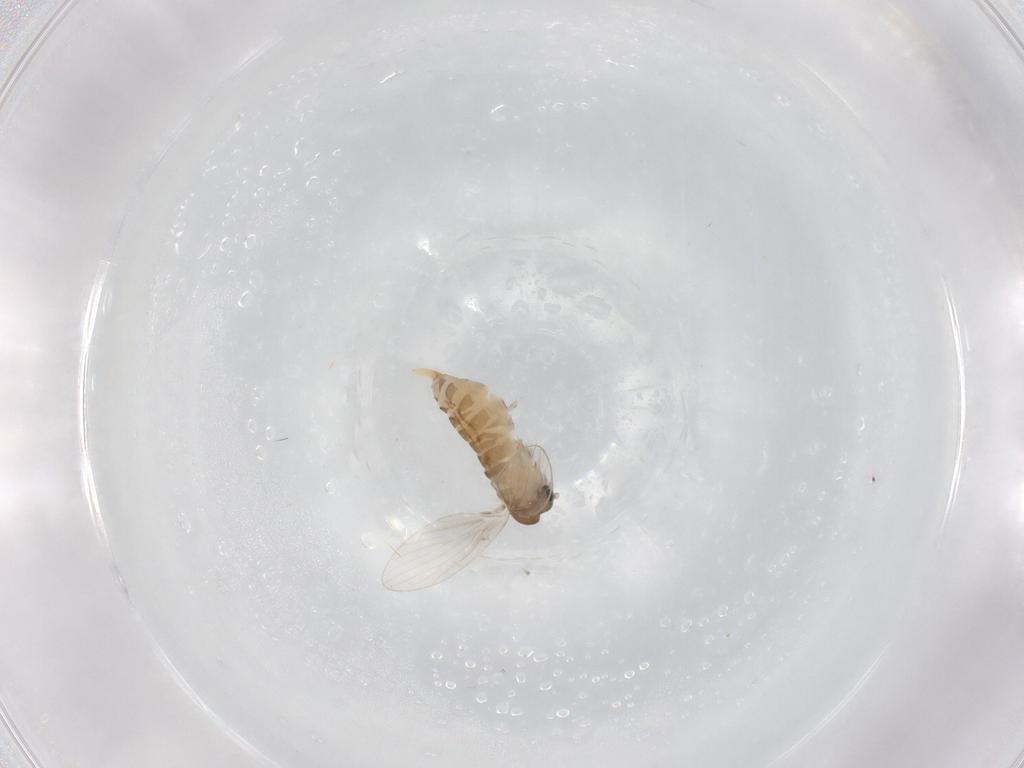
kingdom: Animalia
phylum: Arthropoda
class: Insecta
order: Diptera
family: Psychodidae
